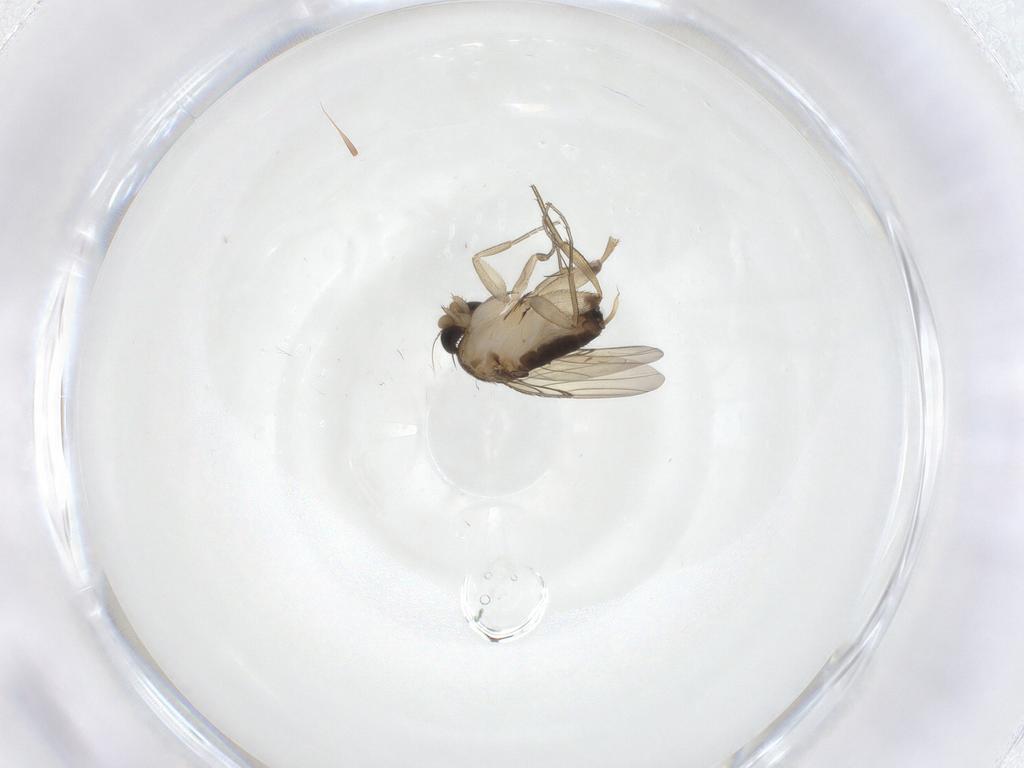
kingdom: Animalia
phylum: Arthropoda
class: Insecta
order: Diptera
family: Phoridae
